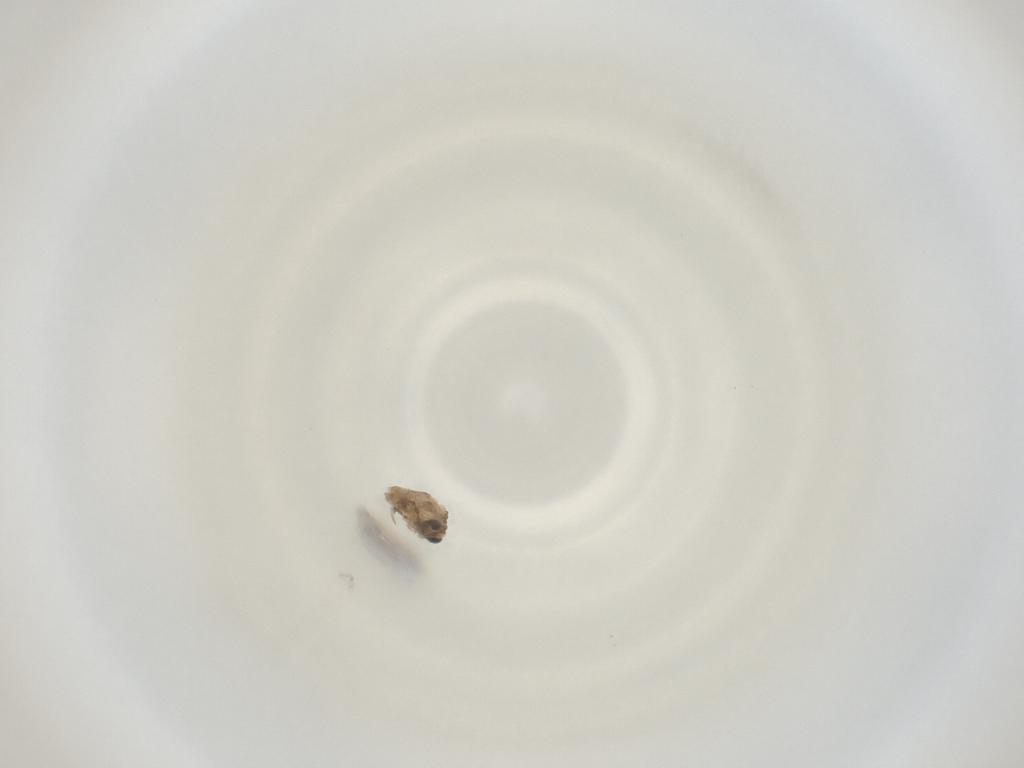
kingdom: Animalia
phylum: Arthropoda
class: Insecta
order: Diptera
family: Cecidomyiidae
